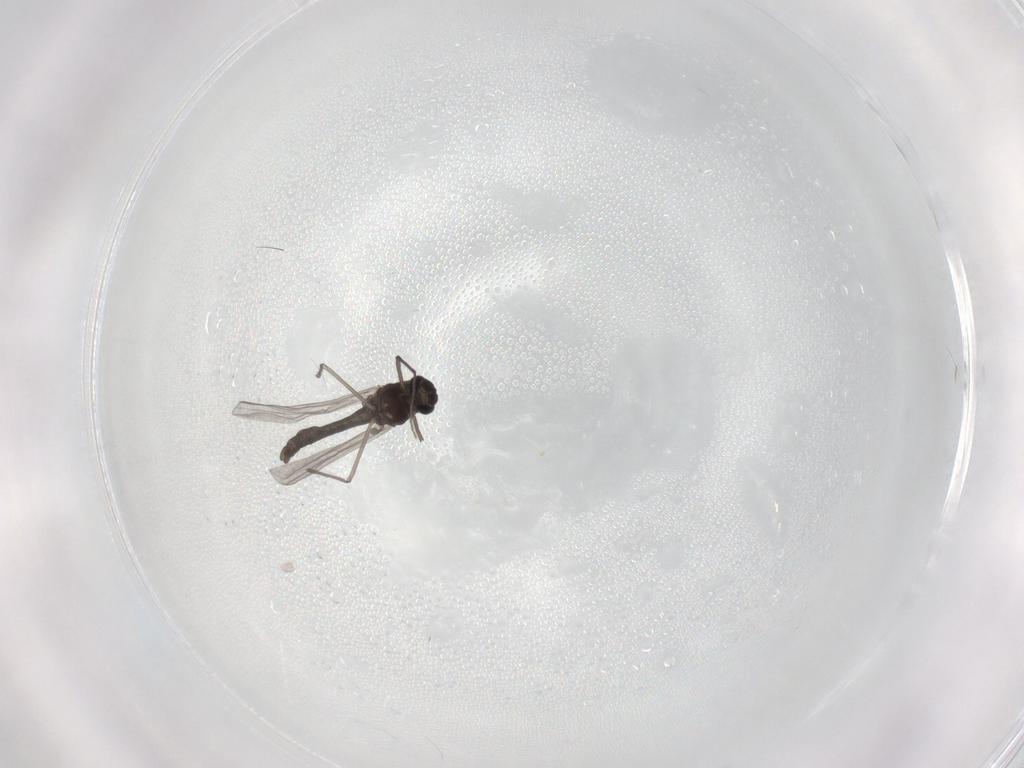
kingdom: Animalia
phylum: Arthropoda
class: Insecta
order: Diptera
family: Chironomidae
